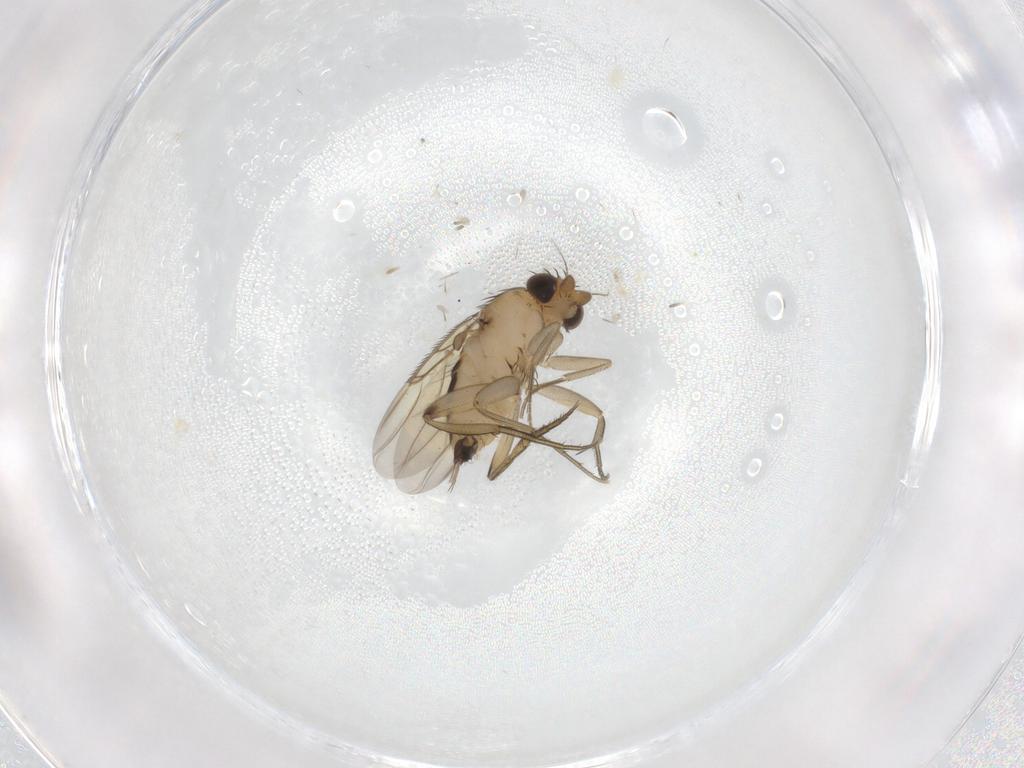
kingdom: Animalia
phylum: Arthropoda
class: Insecta
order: Diptera
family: Phoridae
